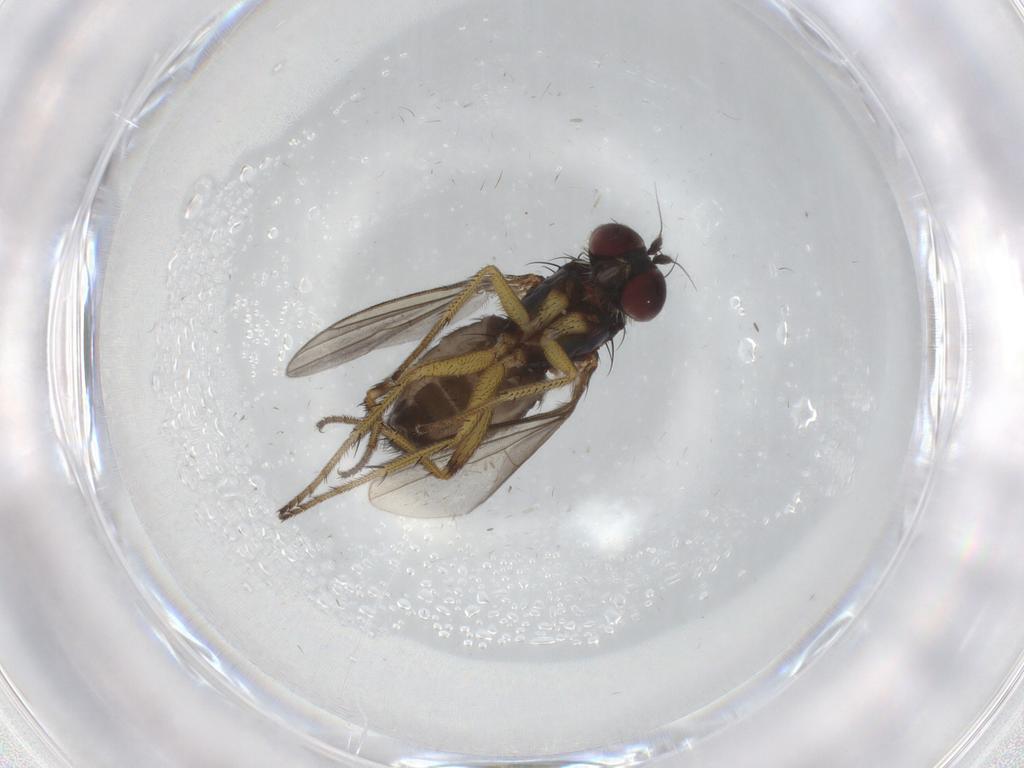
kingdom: Animalia
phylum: Arthropoda
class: Insecta
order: Diptera
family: Dolichopodidae
